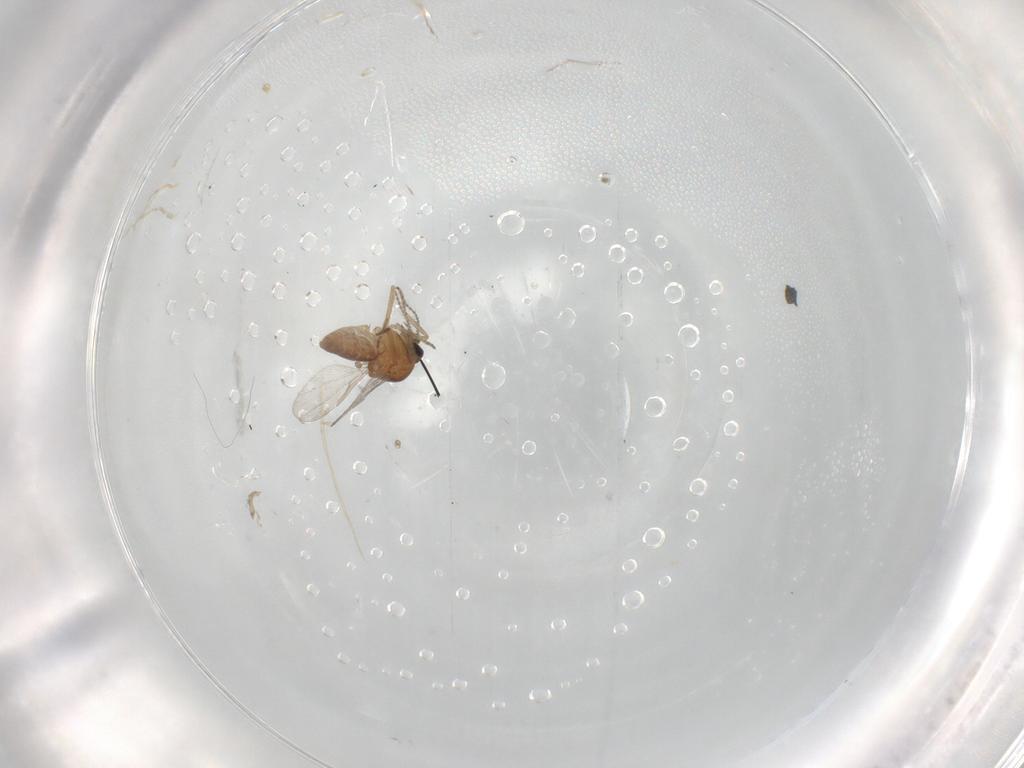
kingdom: Animalia
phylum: Arthropoda
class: Insecta
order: Diptera
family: Ceratopogonidae
